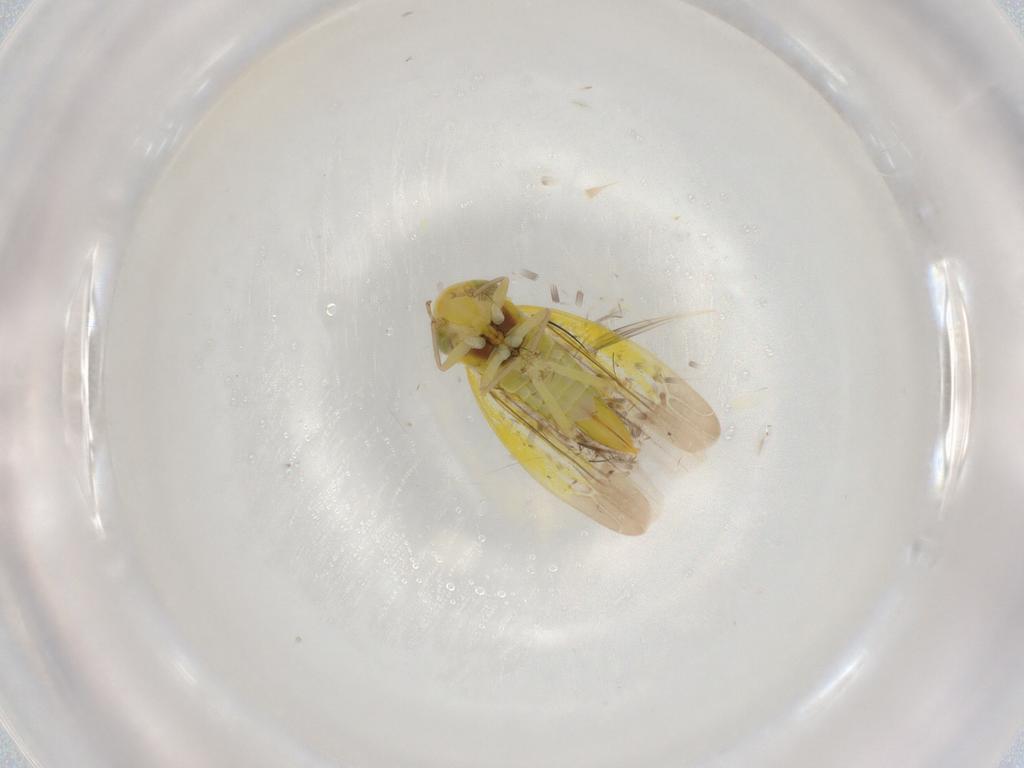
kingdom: Animalia
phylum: Arthropoda
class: Insecta
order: Hemiptera
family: Cicadellidae
